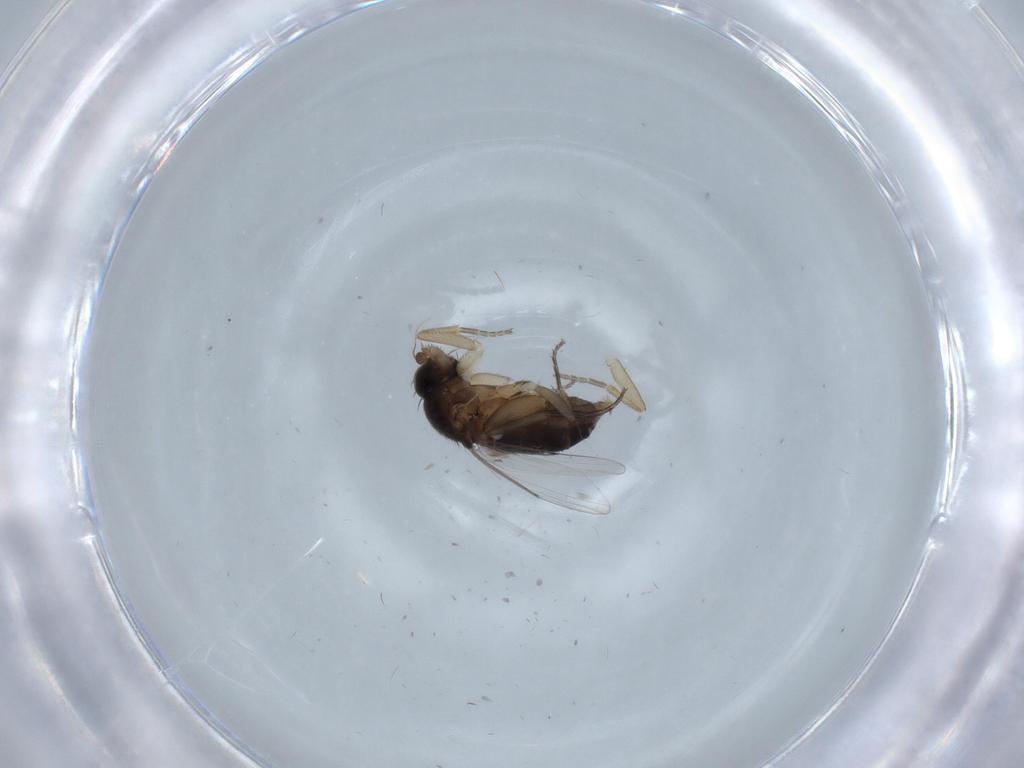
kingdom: Animalia
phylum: Arthropoda
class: Insecta
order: Diptera
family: Phoridae
